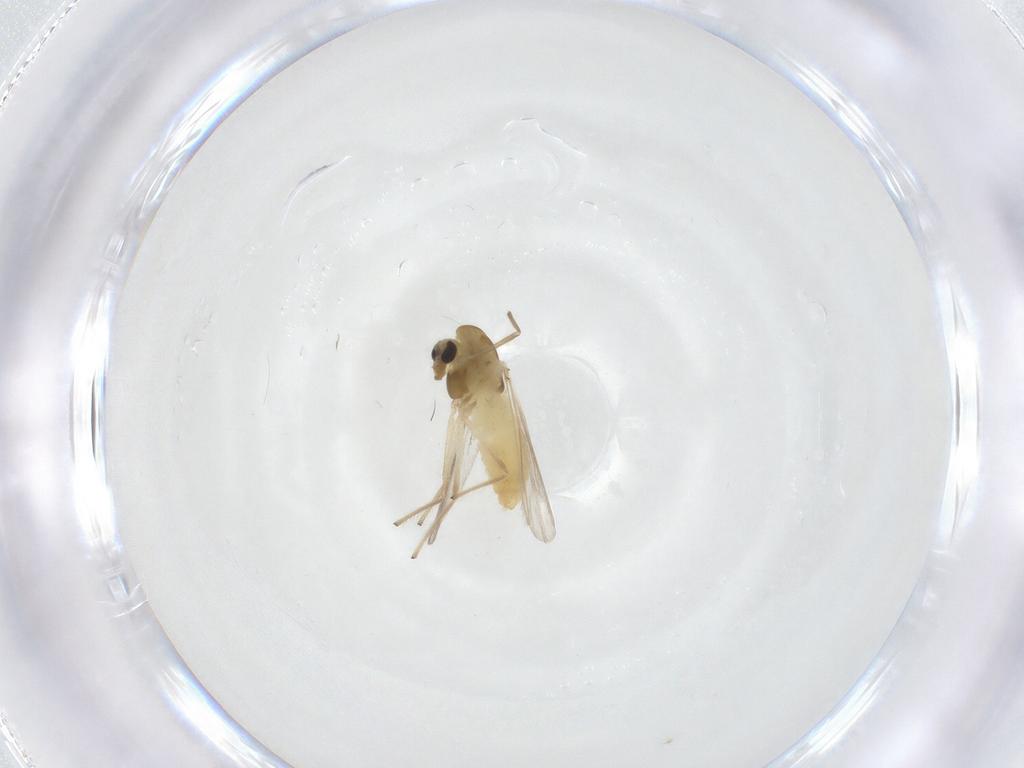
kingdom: Animalia
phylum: Arthropoda
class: Insecta
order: Diptera
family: Chironomidae
